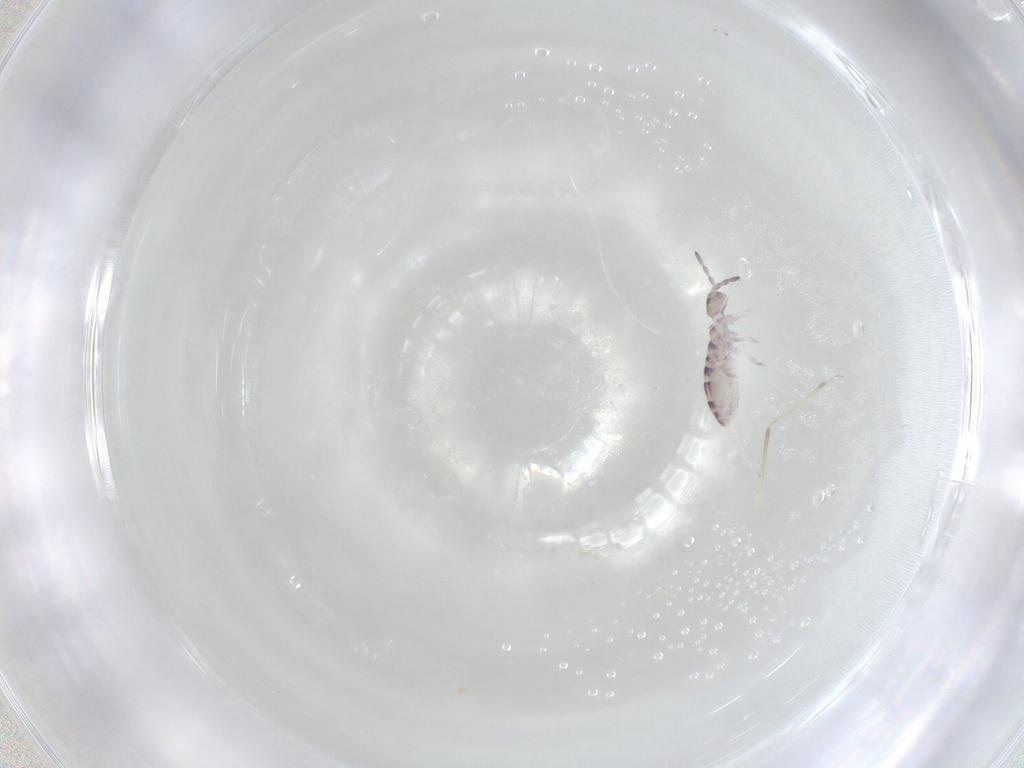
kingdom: Animalia
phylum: Arthropoda
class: Collembola
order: Entomobryomorpha
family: Isotomidae
